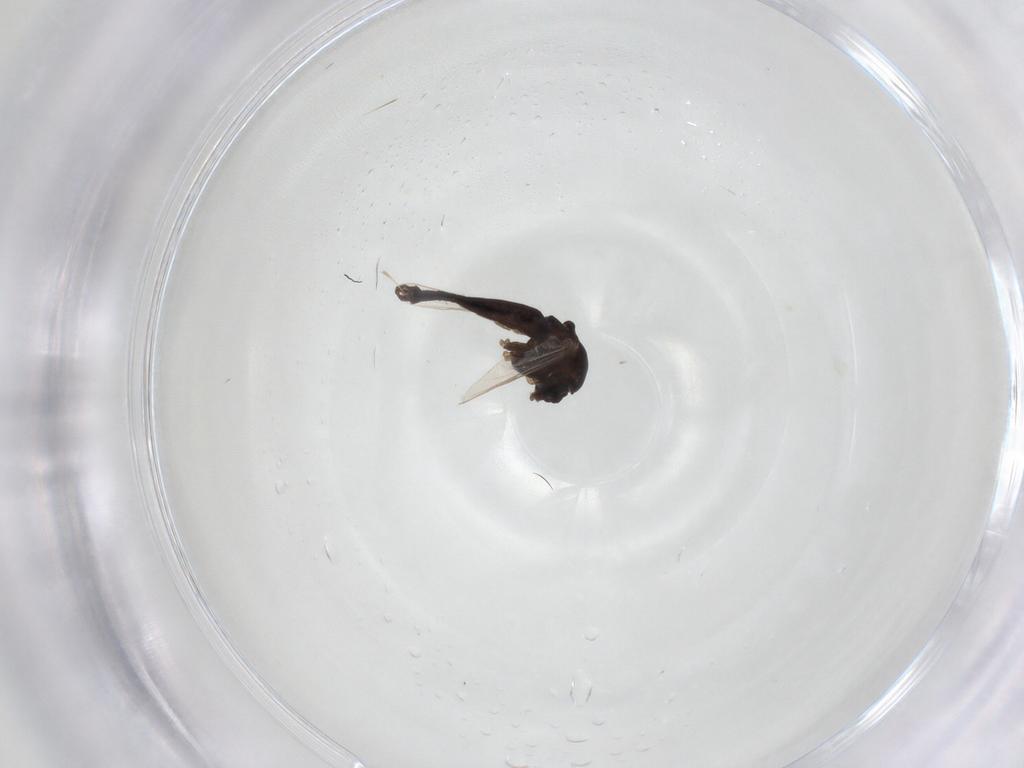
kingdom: Animalia
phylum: Arthropoda
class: Insecta
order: Diptera
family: Chironomidae
